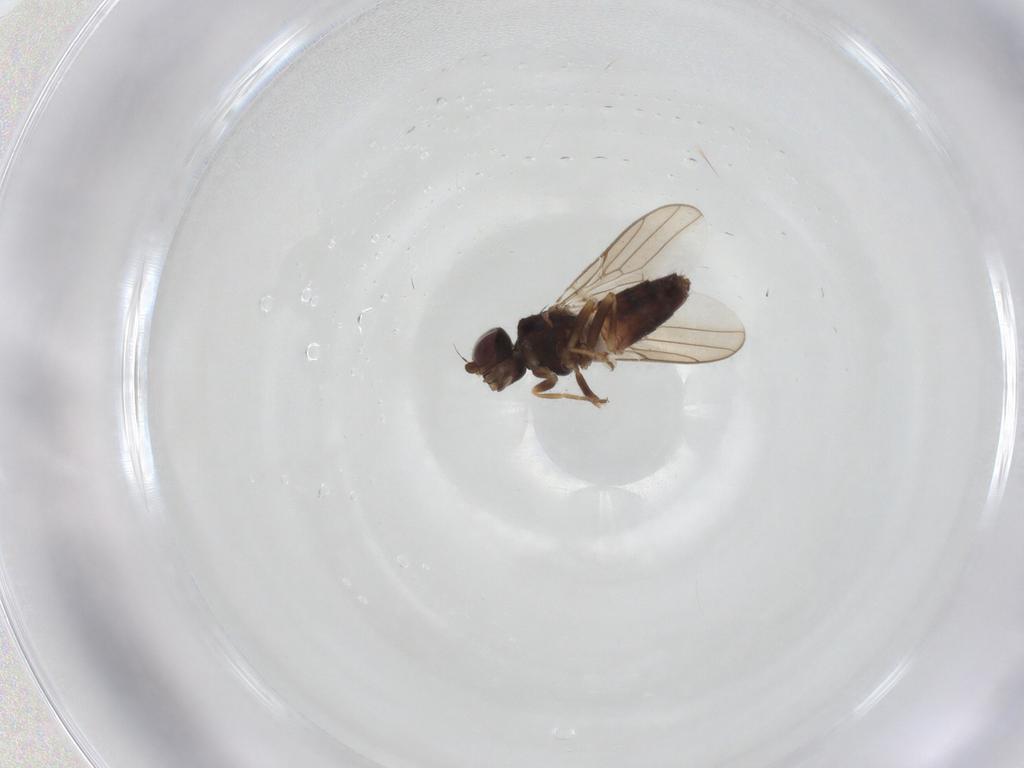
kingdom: Animalia
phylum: Arthropoda
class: Insecta
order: Diptera
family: Chloropidae
